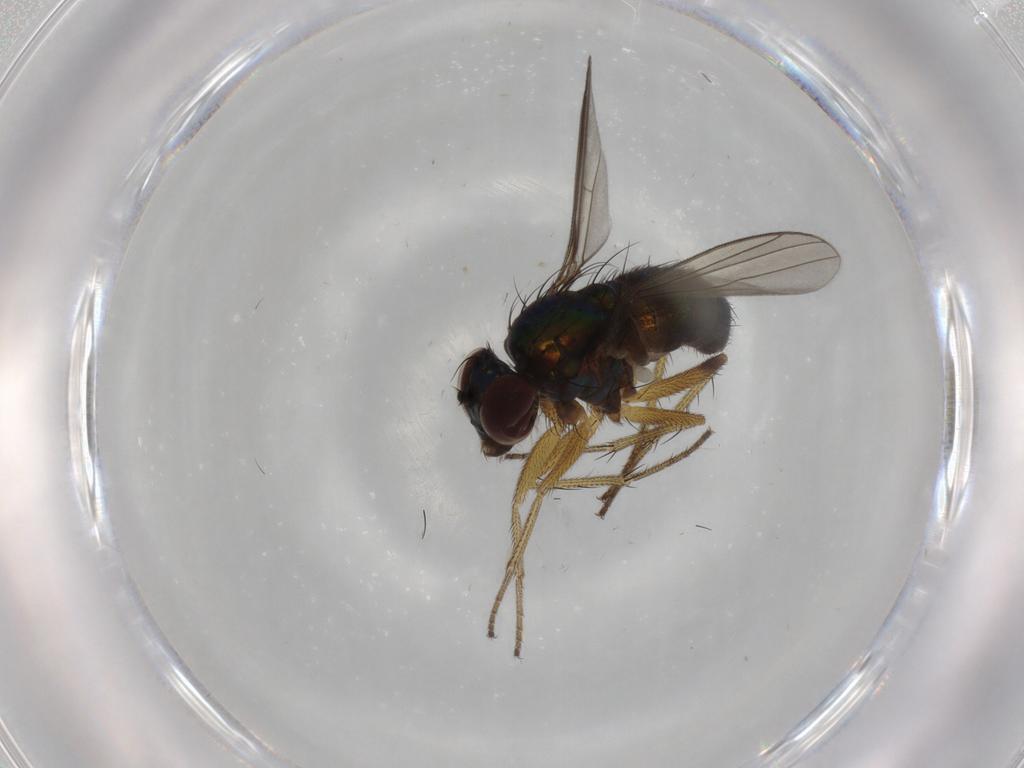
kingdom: Animalia
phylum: Arthropoda
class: Insecta
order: Diptera
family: Dolichopodidae
